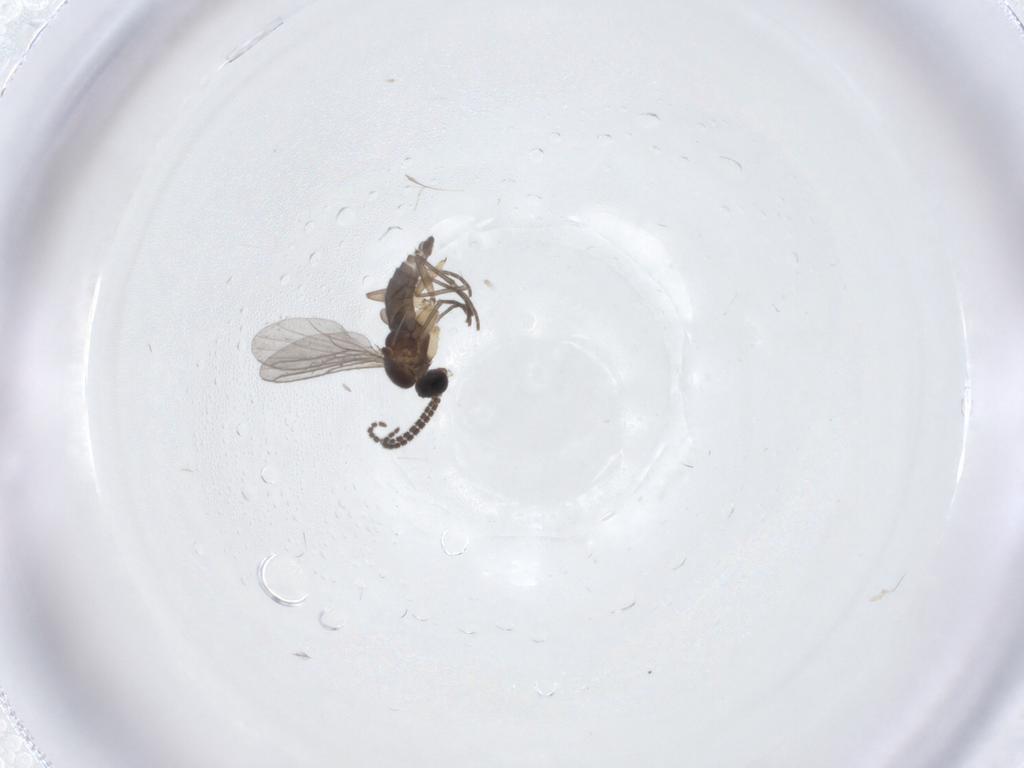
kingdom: Animalia
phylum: Arthropoda
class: Insecta
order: Diptera
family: Sciaridae
